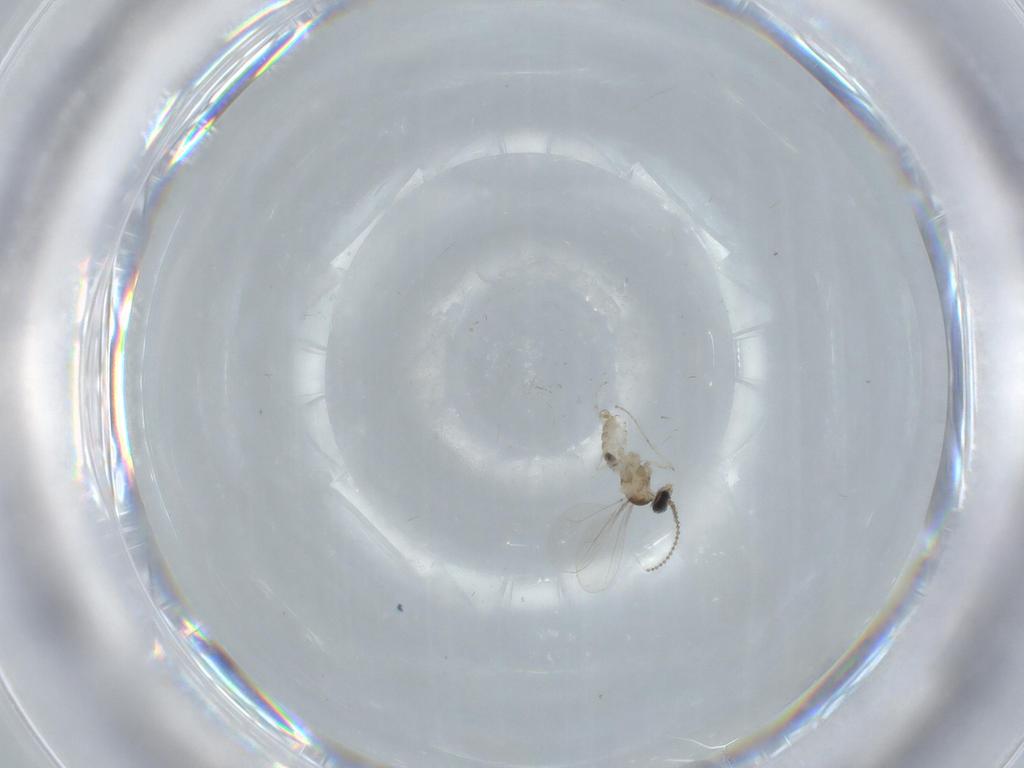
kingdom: Animalia
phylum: Arthropoda
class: Insecta
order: Diptera
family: Cecidomyiidae
